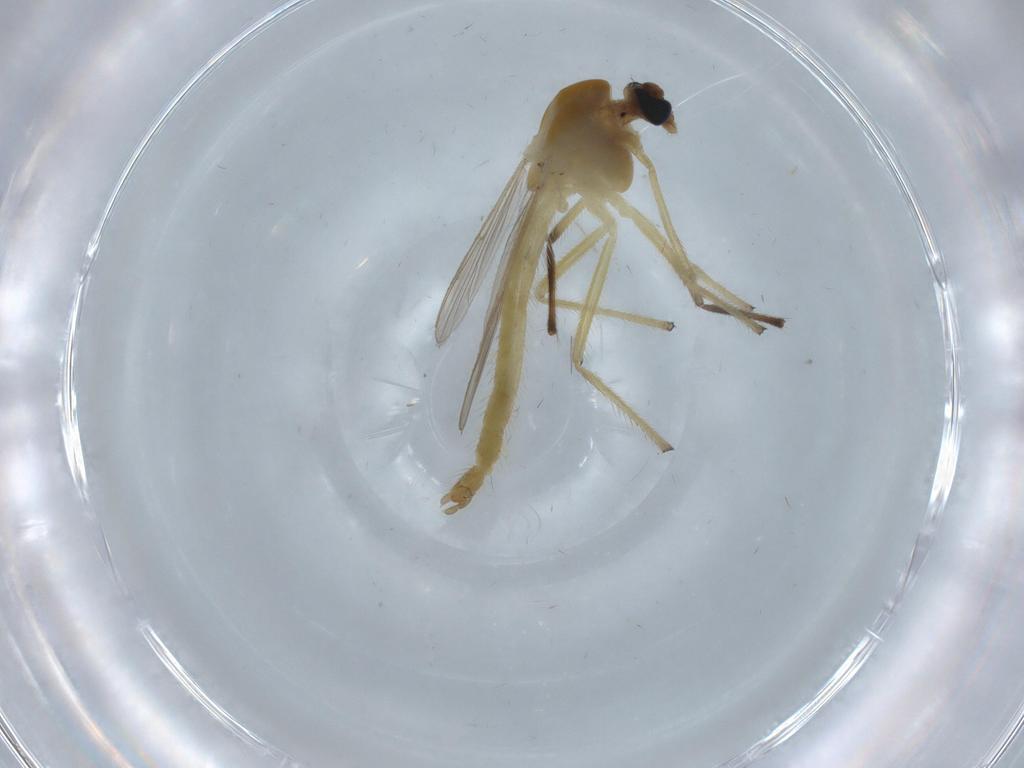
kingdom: Animalia
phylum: Arthropoda
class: Insecta
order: Diptera
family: Chironomidae
